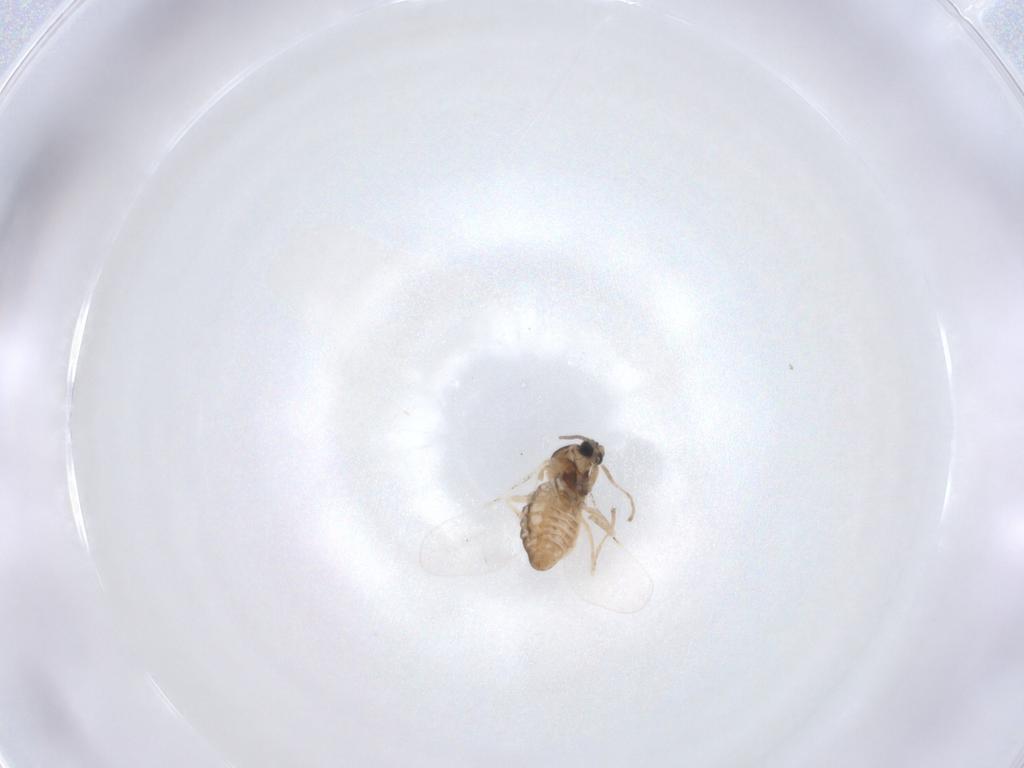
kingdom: Animalia
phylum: Arthropoda
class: Insecta
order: Diptera
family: Cecidomyiidae
